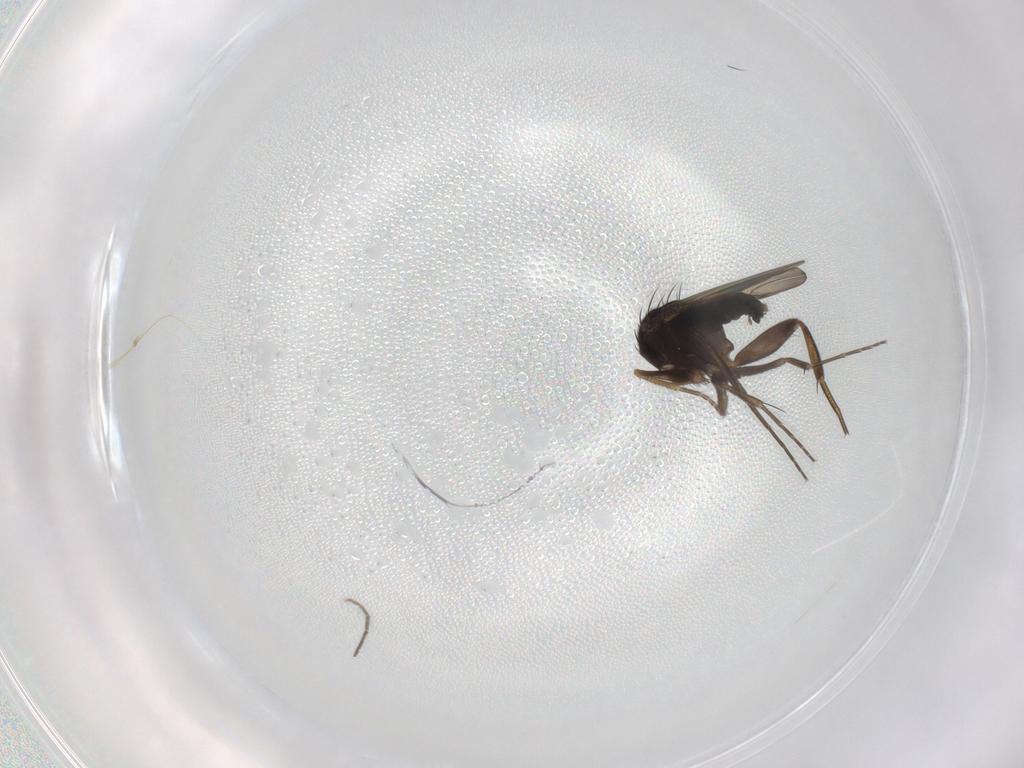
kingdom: Animalia
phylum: Arthropoda
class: Insecta
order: Diptera
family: Phoridae
